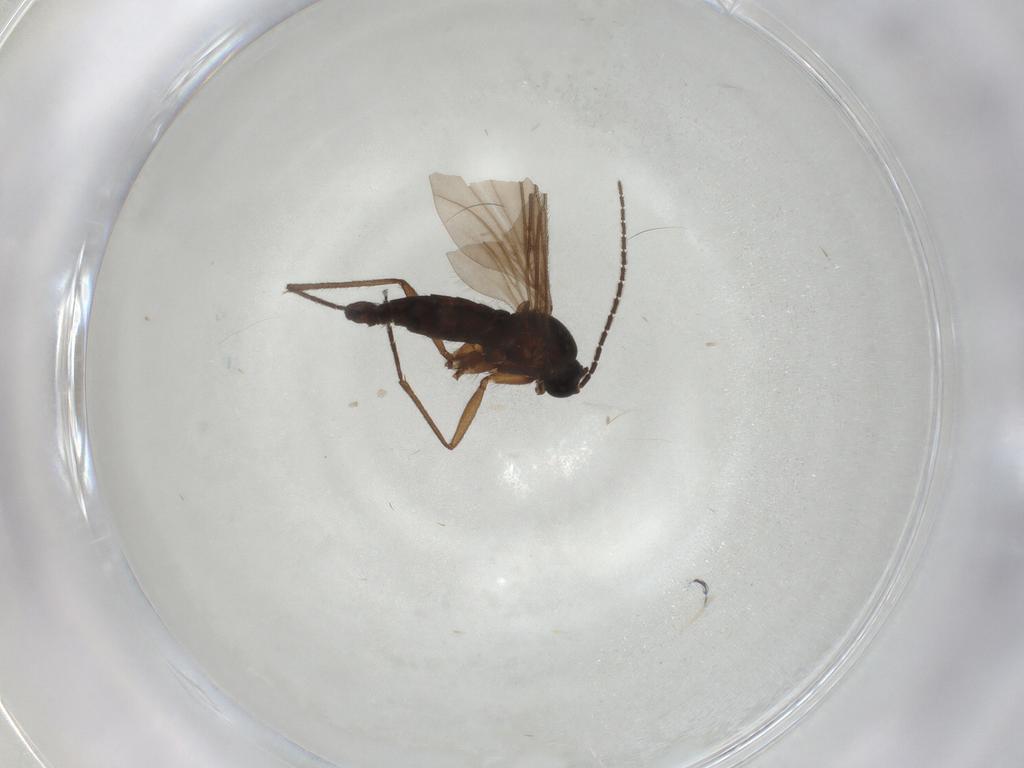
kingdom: Animalia
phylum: Arthropoda
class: Insecta
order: Diptera
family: Sciaridae
